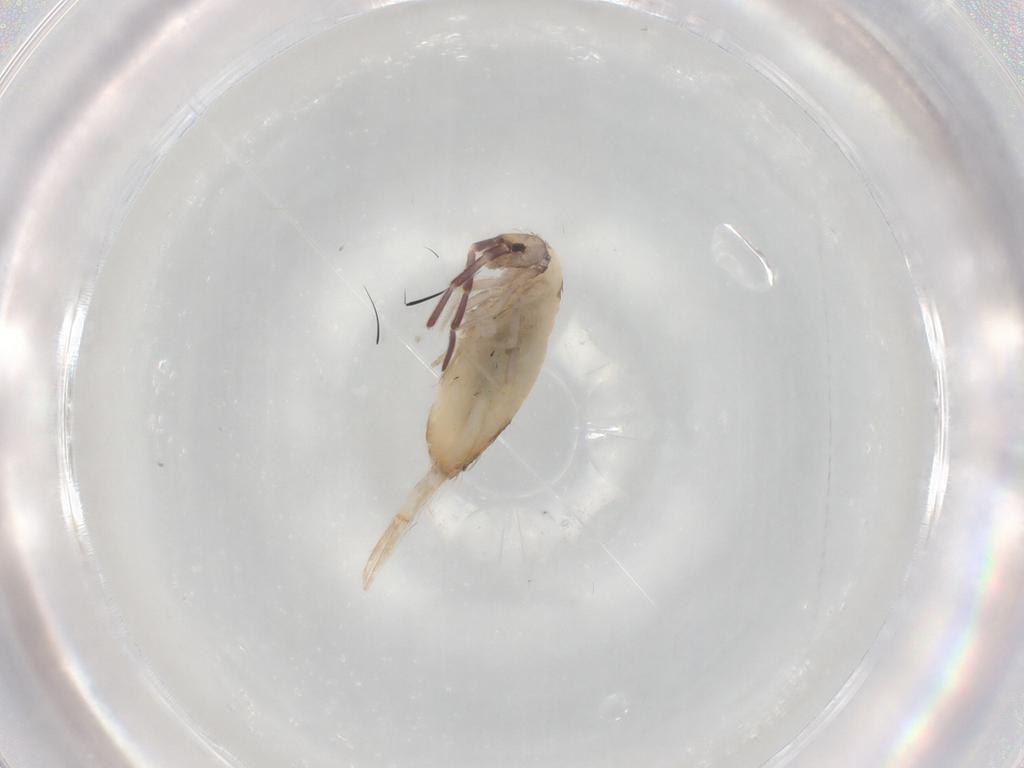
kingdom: Animalia
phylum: Arthropoda
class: Collembola
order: Entomobryomorpha
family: Entomobryidae
